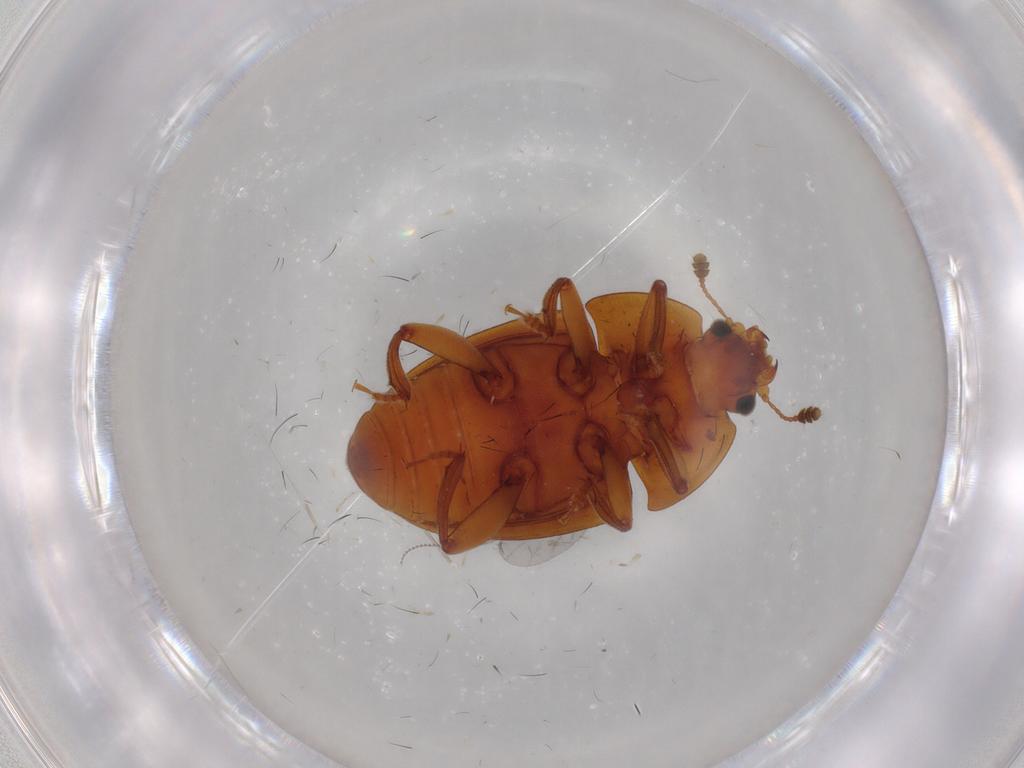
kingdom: Animalia
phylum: Arthropoda
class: Insecta
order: Coleoptera
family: Nitidulidae
